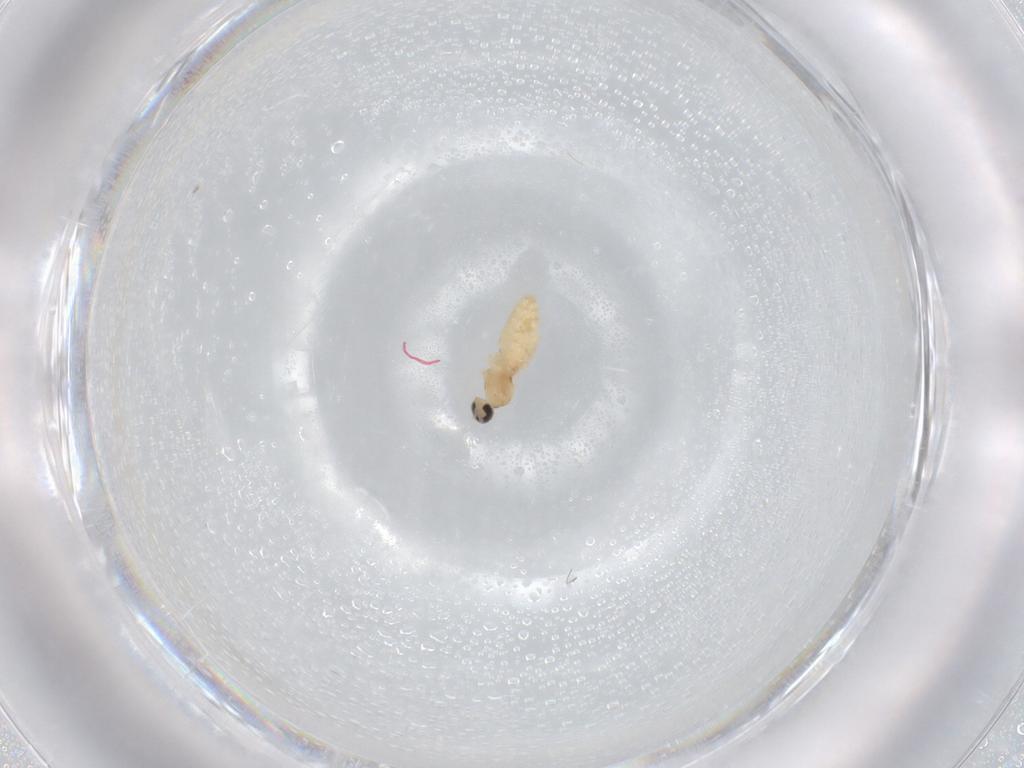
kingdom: Animalia
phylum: Arthropoda
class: Insecta
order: Diptera
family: Cecidomyiidae
